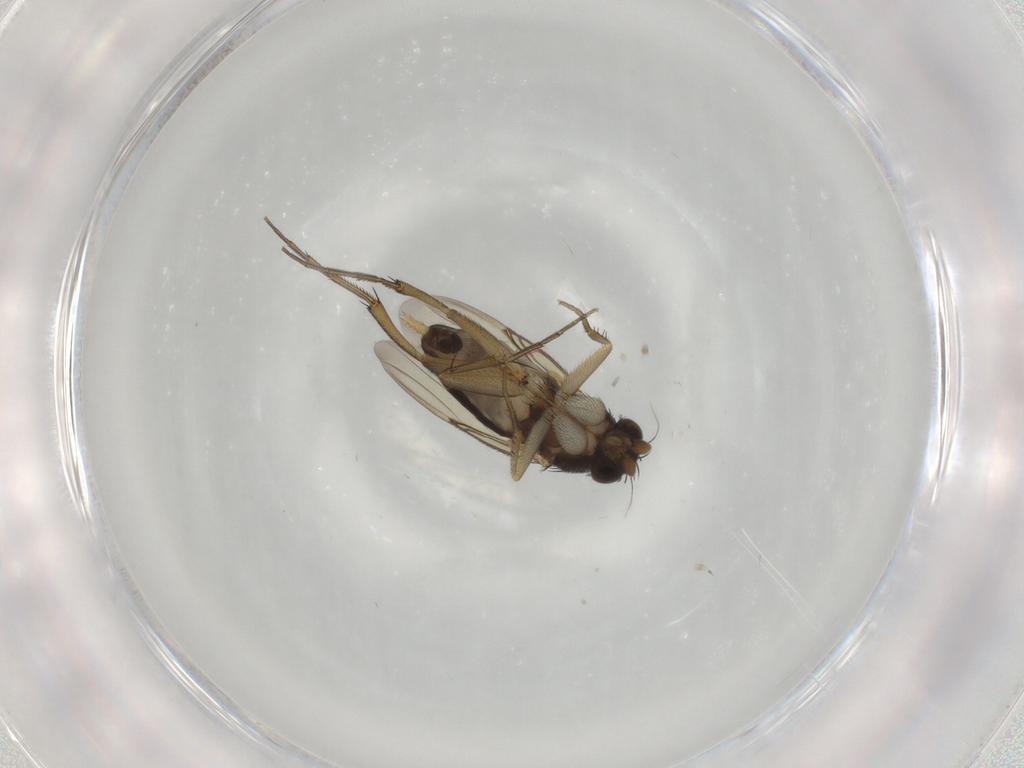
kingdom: Animalia
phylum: Arthropoda
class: Insecta
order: Diptera
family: Phoridae
